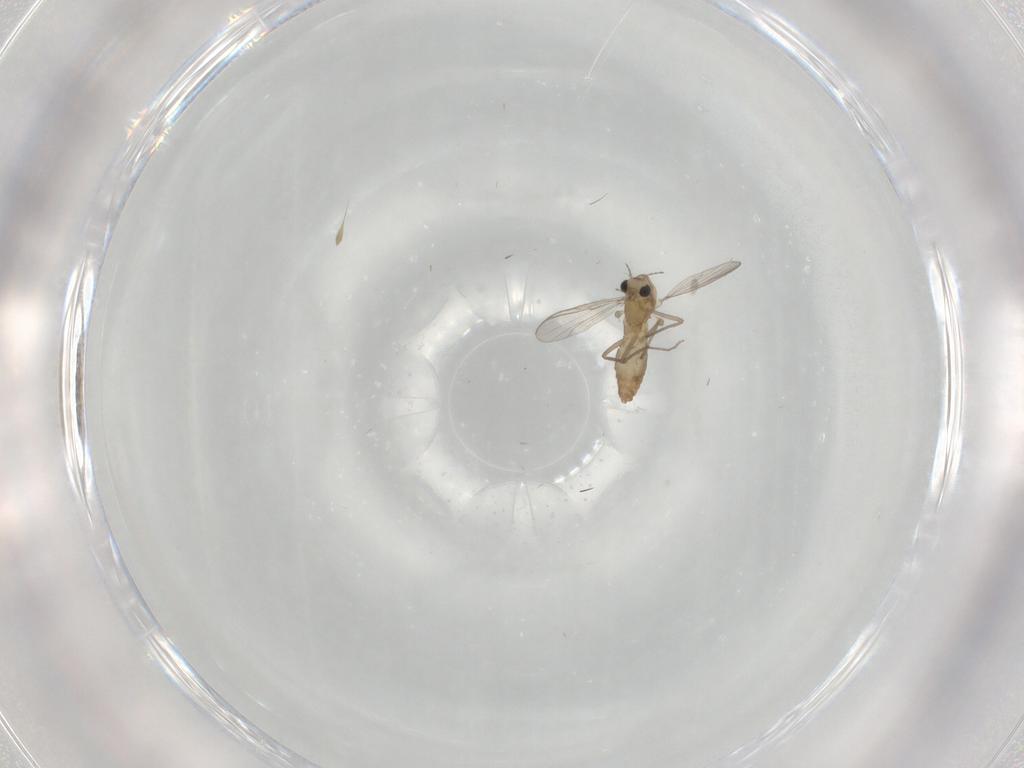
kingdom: Animalia
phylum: Arthropoda
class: Insecta
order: Diptera
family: Chironomidae
